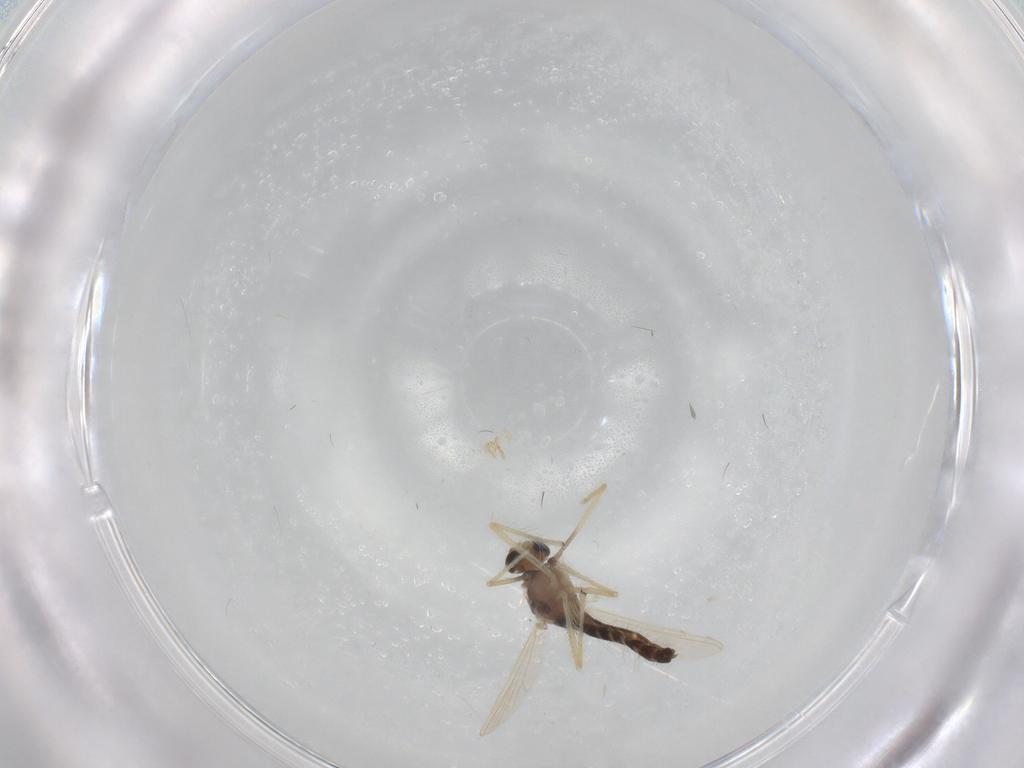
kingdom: Animalia
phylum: Arthropoda
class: Insecta
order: Diptera
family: Chironomidae
